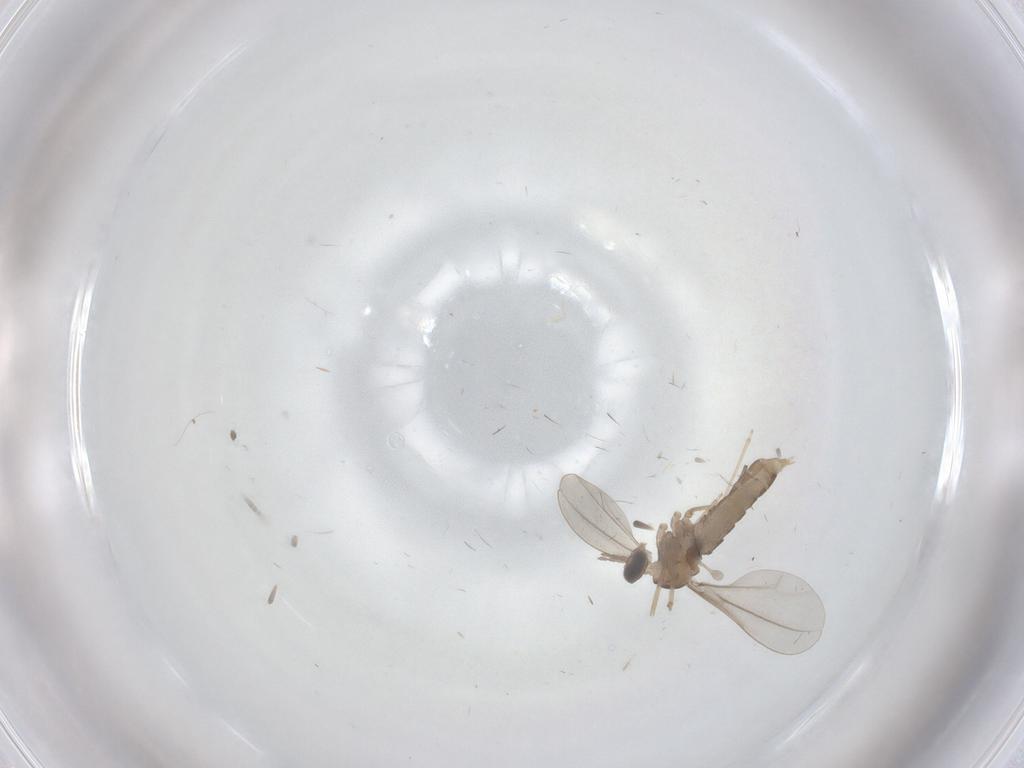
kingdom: Animalia
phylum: Arthropoda
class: Insecta
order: Diptera
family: Cecidomyiidae
